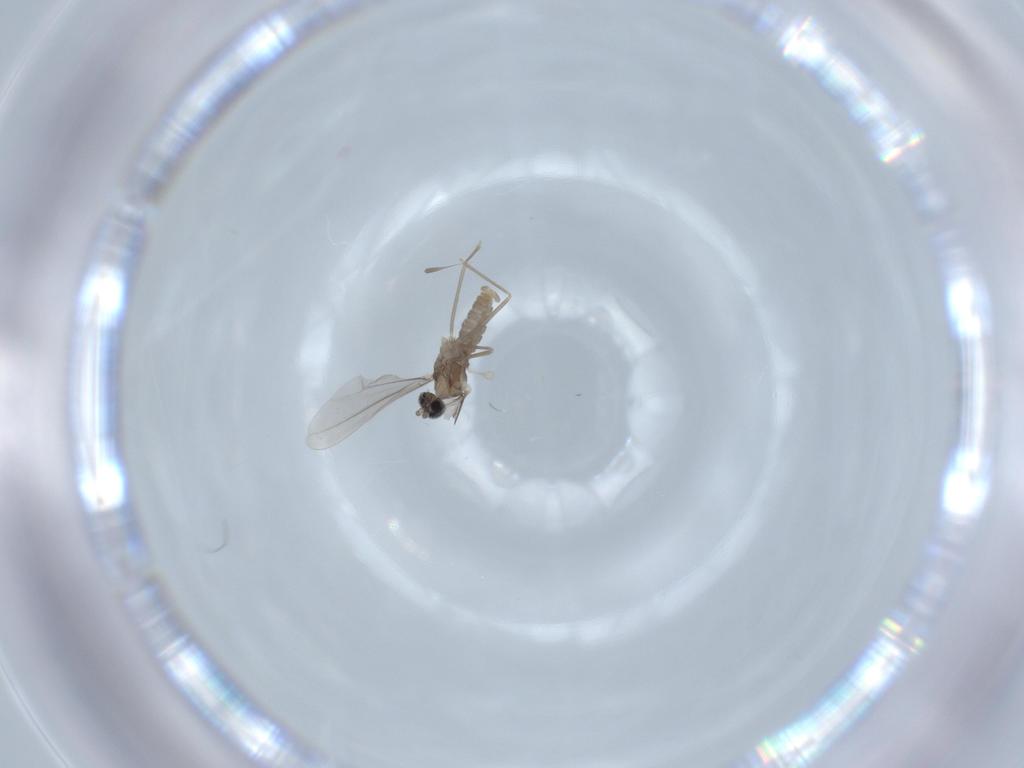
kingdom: Animalia
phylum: Arthropoda
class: Insecta
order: Diptera
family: Cecidomyiidae
